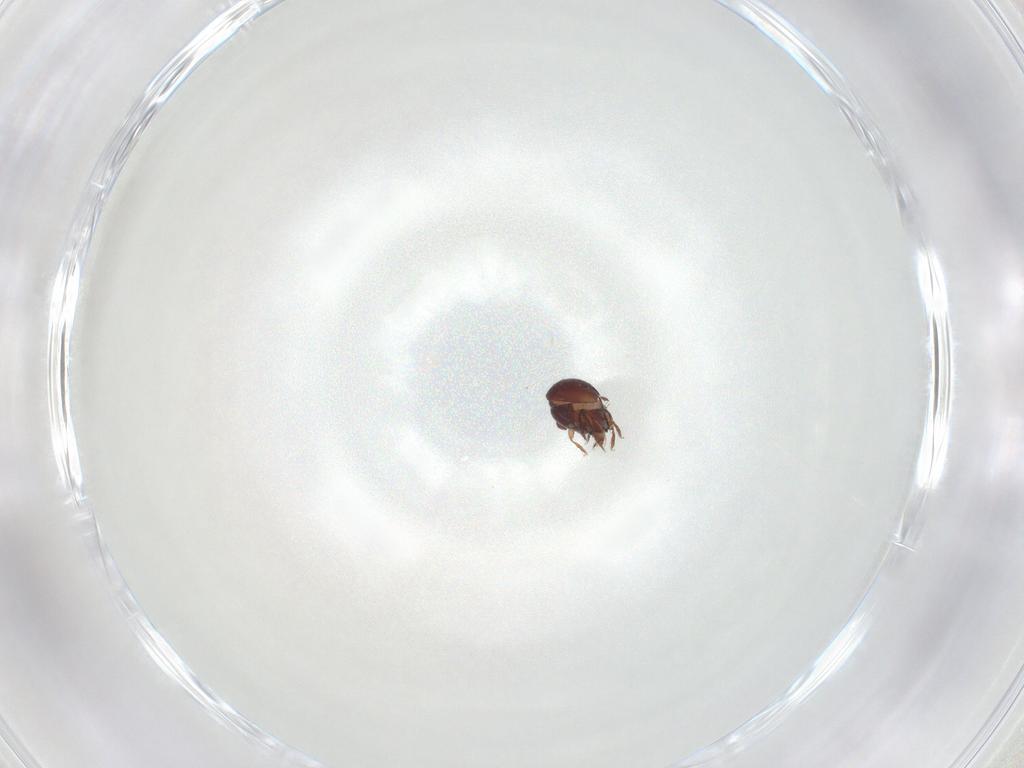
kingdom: Animalia
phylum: Arthropoda
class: Arachnida
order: Sarcoptiformes
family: Humerobatidae
